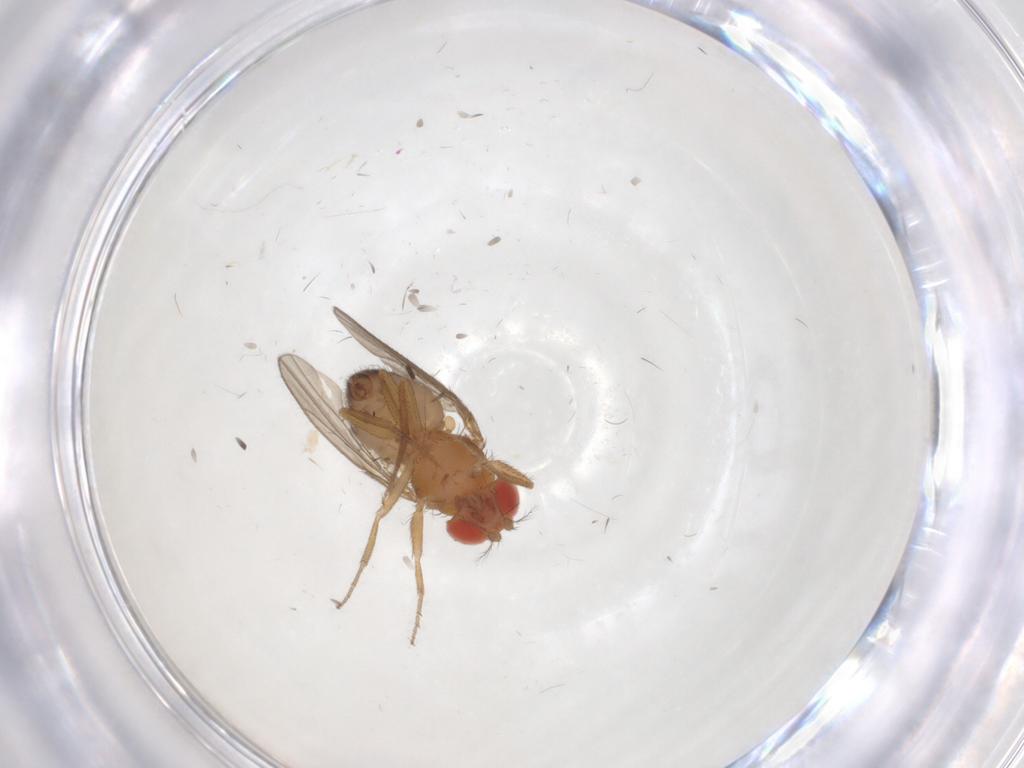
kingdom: Animalia
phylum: Arthropoda
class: Insecta
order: Diptera
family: Drosophilidae
